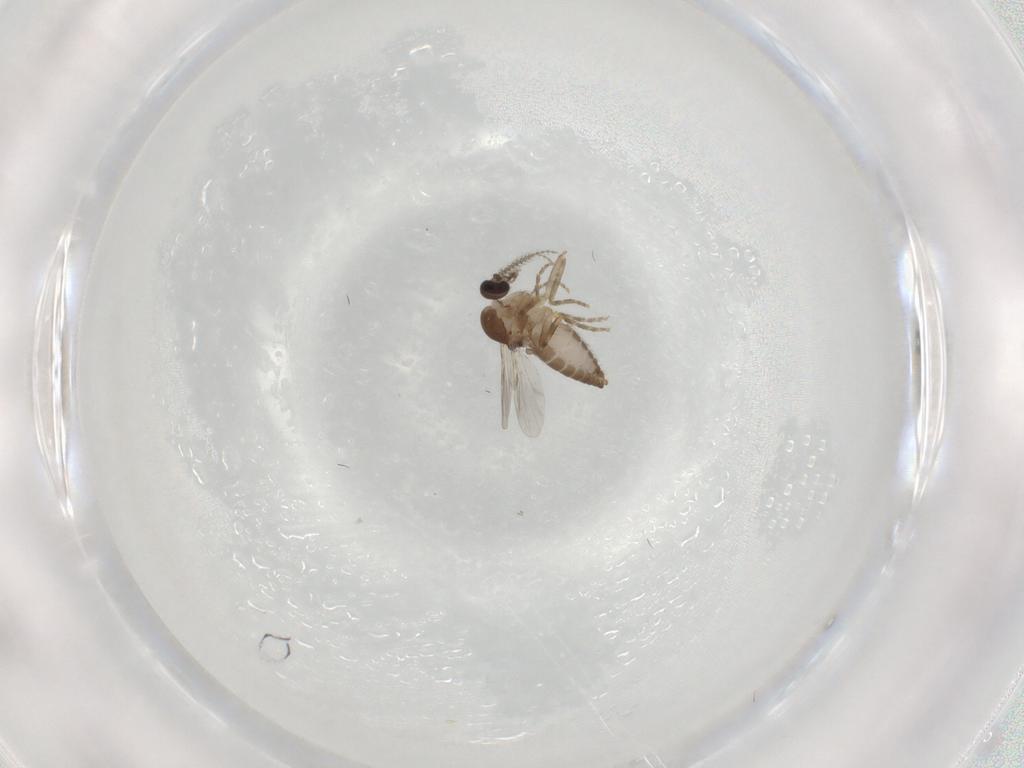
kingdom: Animalia
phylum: Arthropoda
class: Insecta
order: Diptera
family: Ceratopogonidae
